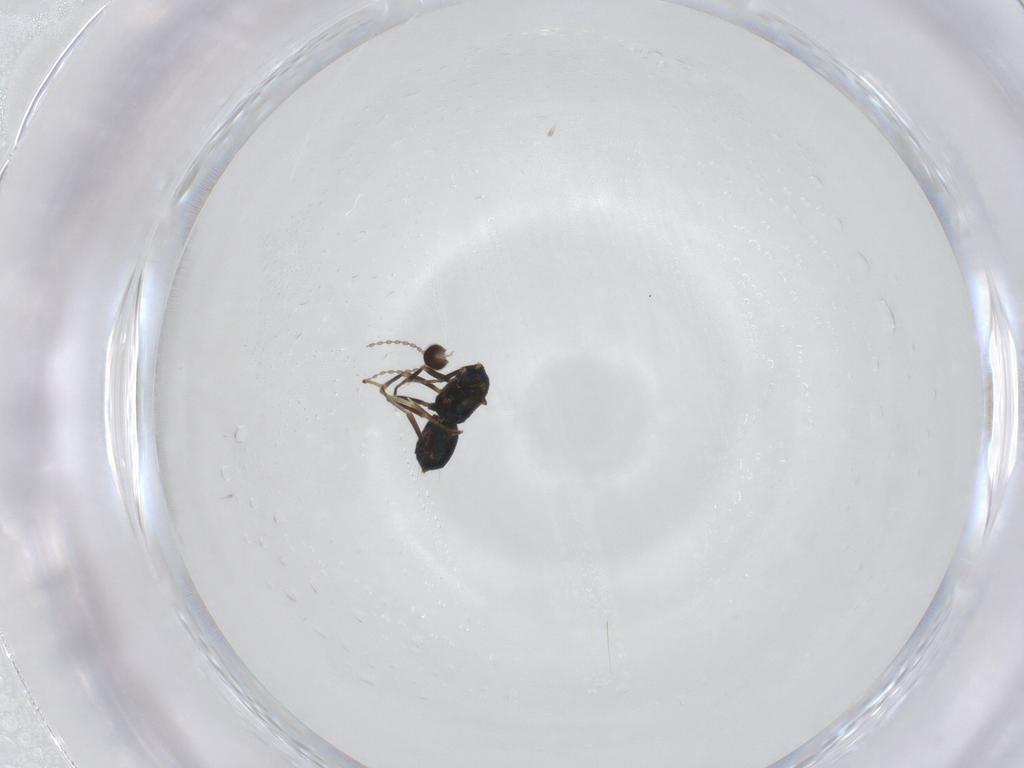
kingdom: Animalia
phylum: Arthropoda
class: Insecta
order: Hymenoptera
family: Encyrtidae
